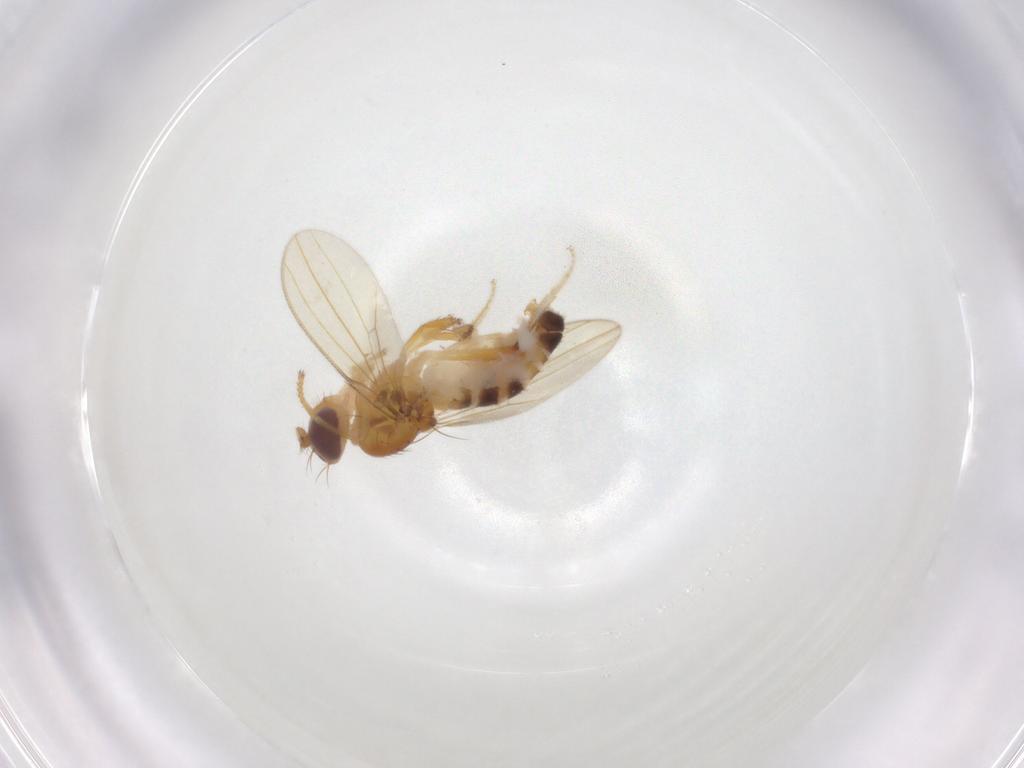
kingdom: Animalia
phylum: Arthropoda
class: Insecta
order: Diptera
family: Periscelididae
